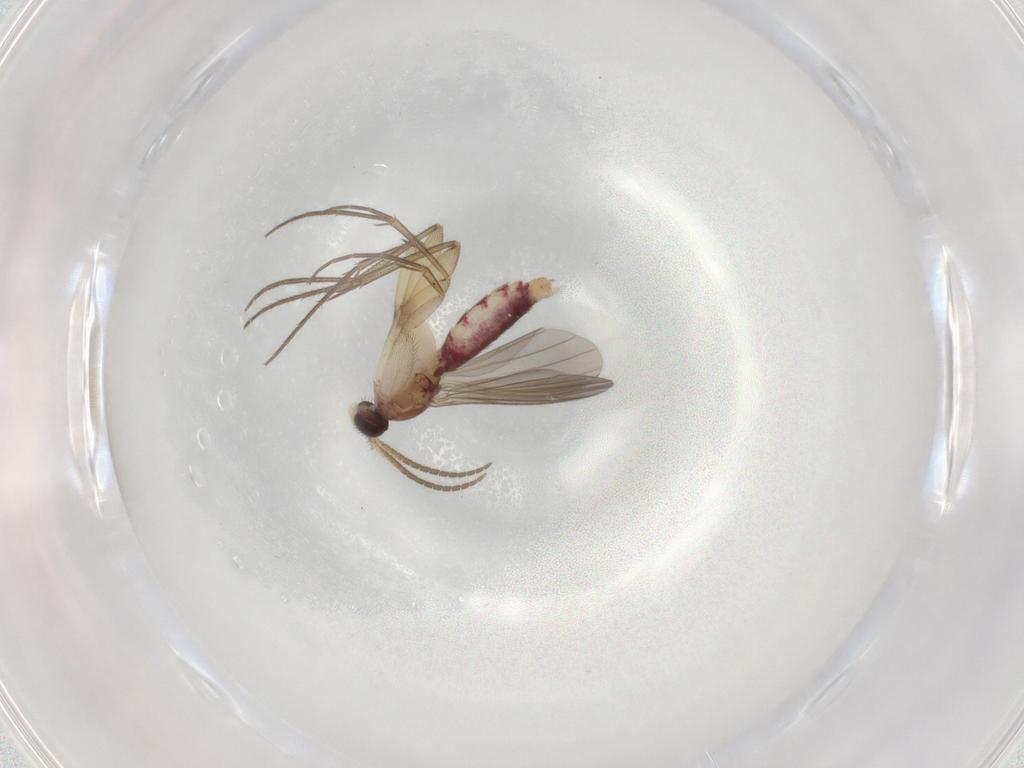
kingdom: Animalia
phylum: Arthropoda
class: Insecta
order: Diptera
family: Mycetophilidae
